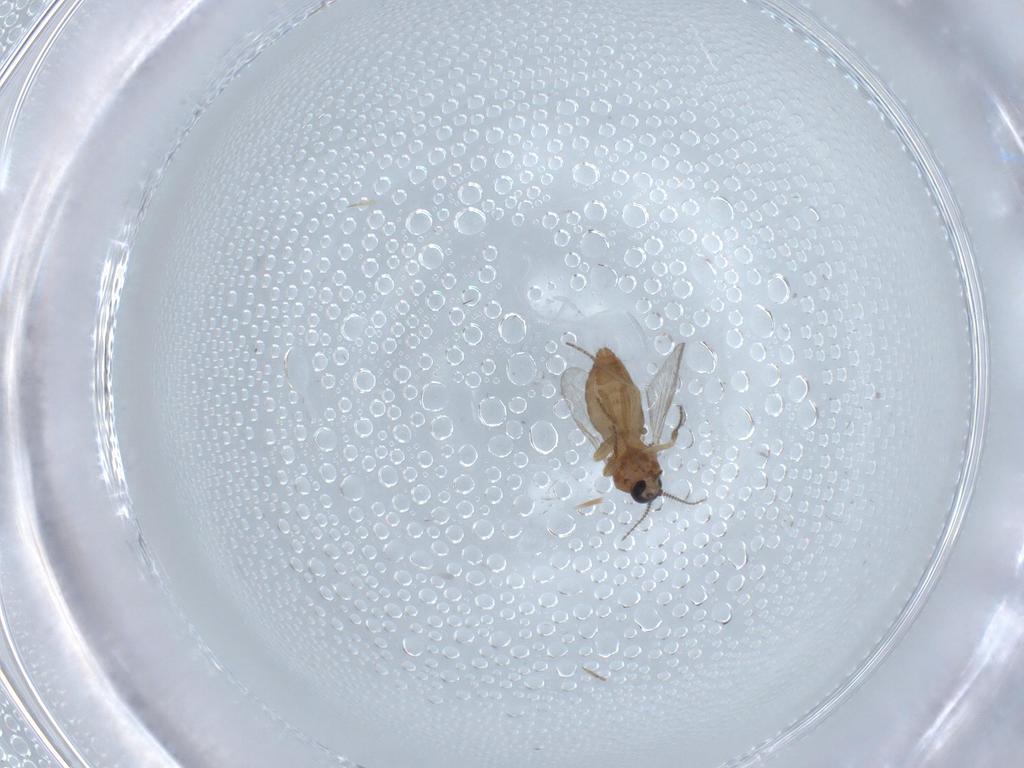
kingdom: Animalia
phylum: Arthropoda
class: Insecta
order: Diptera
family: Ceratopogonidae
